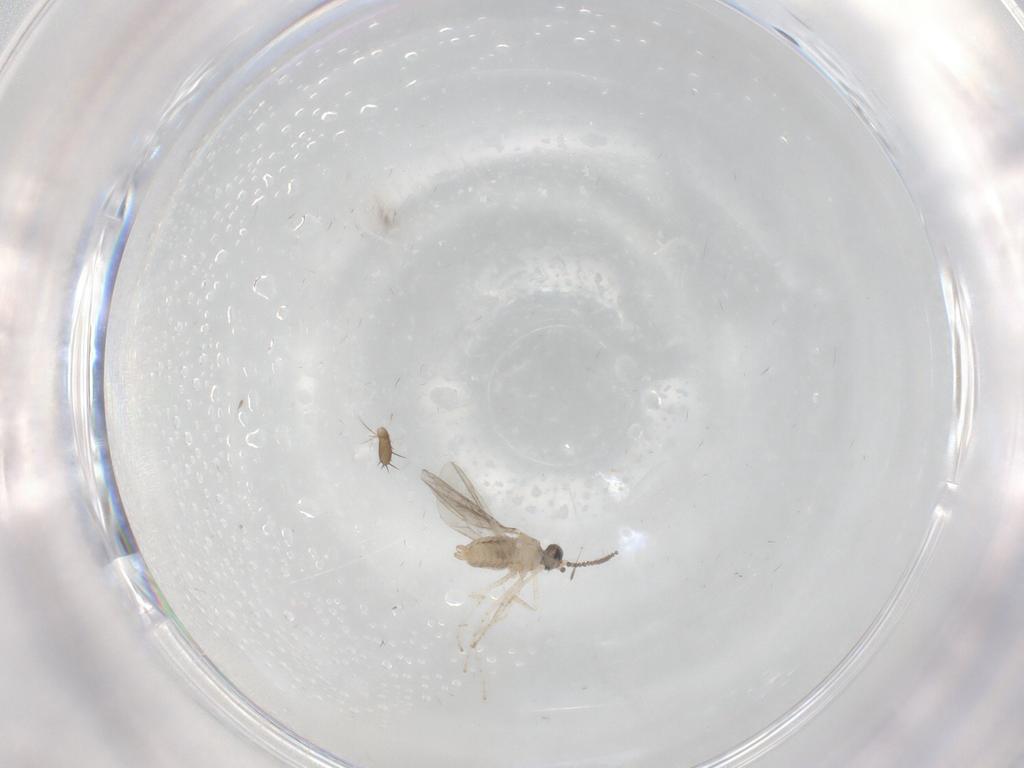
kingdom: Animalia
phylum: Arthropoda
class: Insecta
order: Diptera
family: Cecidomyiidae
